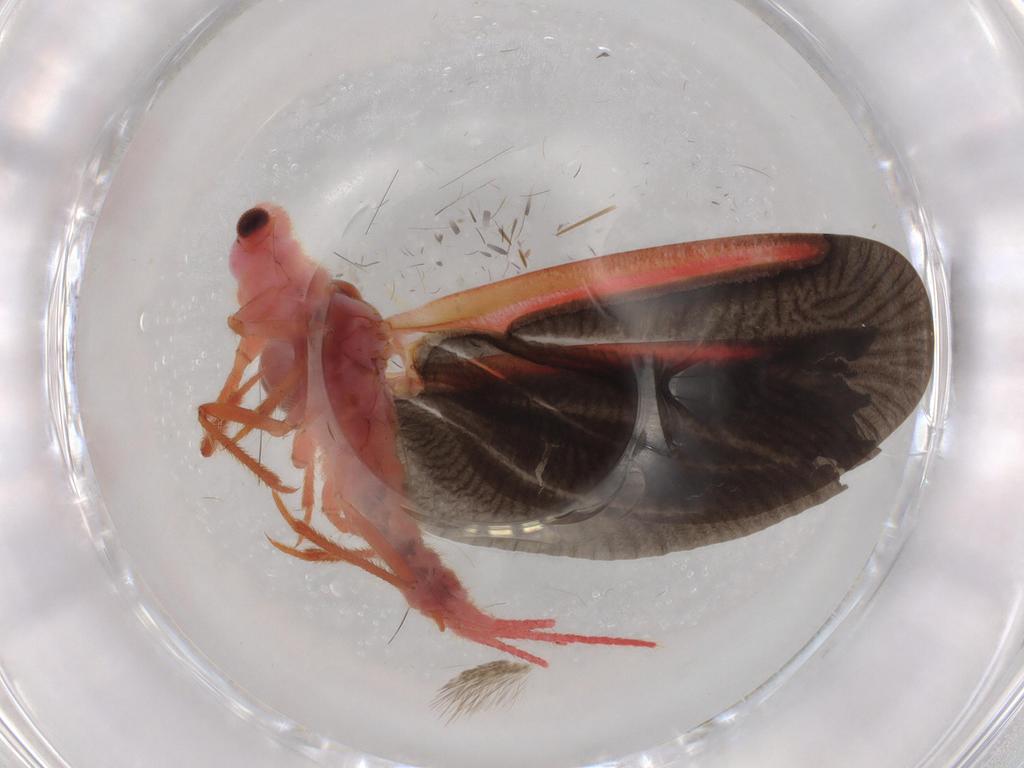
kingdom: Animalia
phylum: Arthropoda
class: Insecta
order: Hemiptera
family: Coccoidea_incertae_sedis
